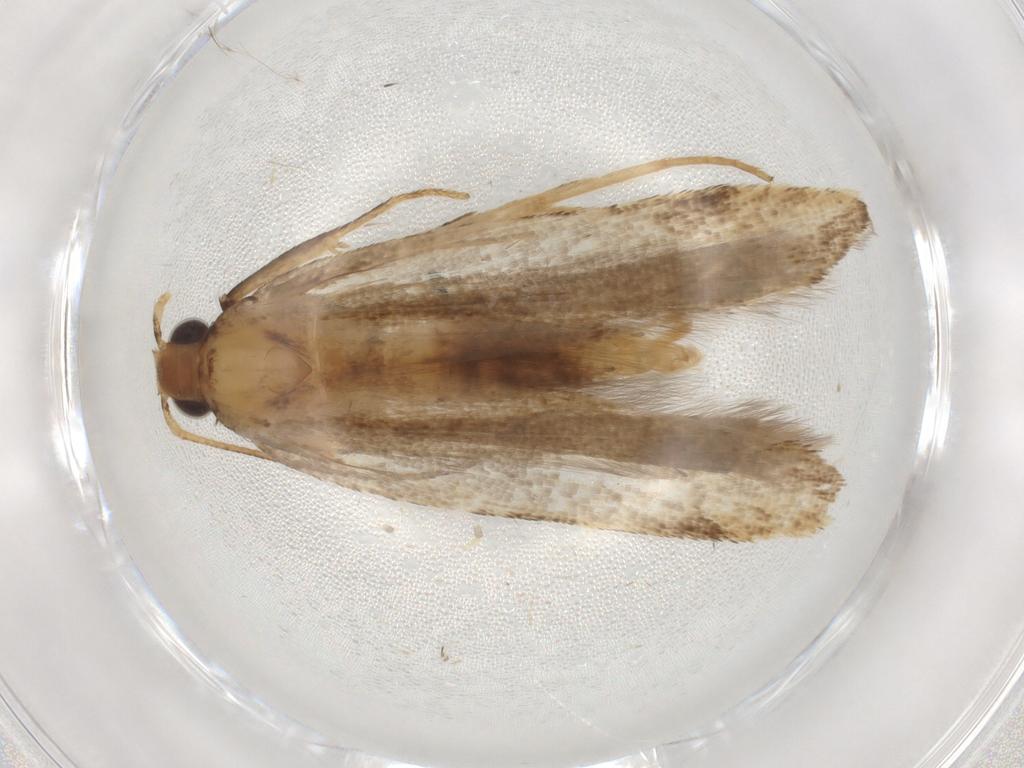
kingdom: Animalia
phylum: Arthropoda
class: Insecta
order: Lepidoptera
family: Gelechiidae
